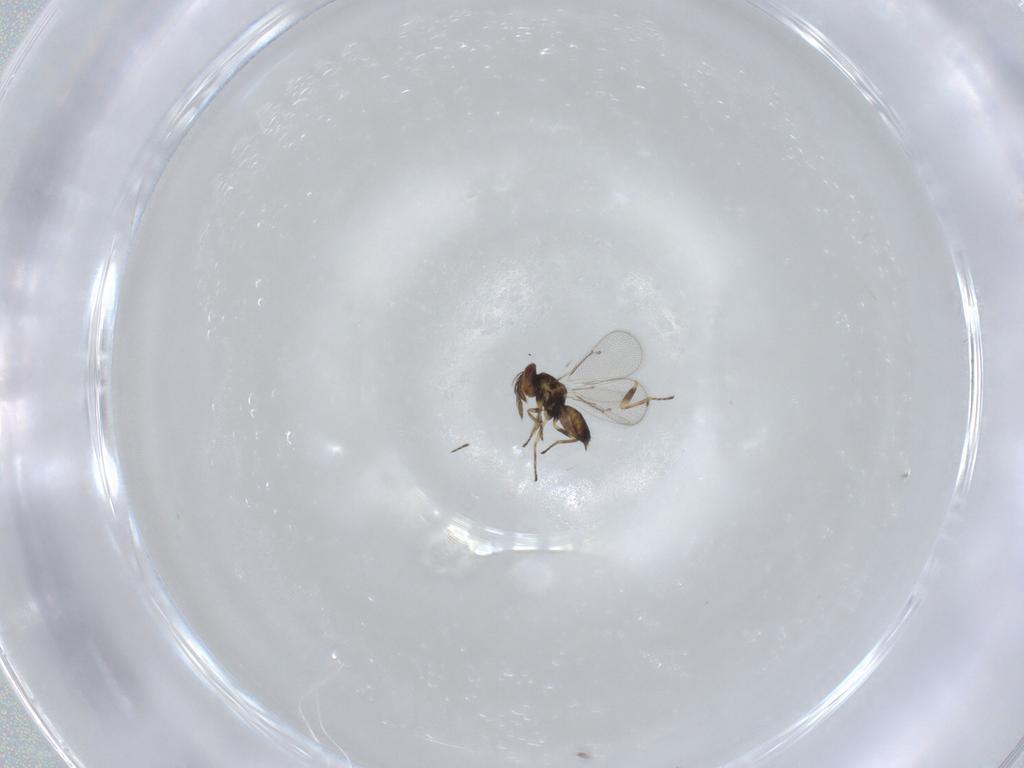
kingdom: Animalia
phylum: Arthropoda
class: Insecta
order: Hymenoptera
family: Eulophidae
